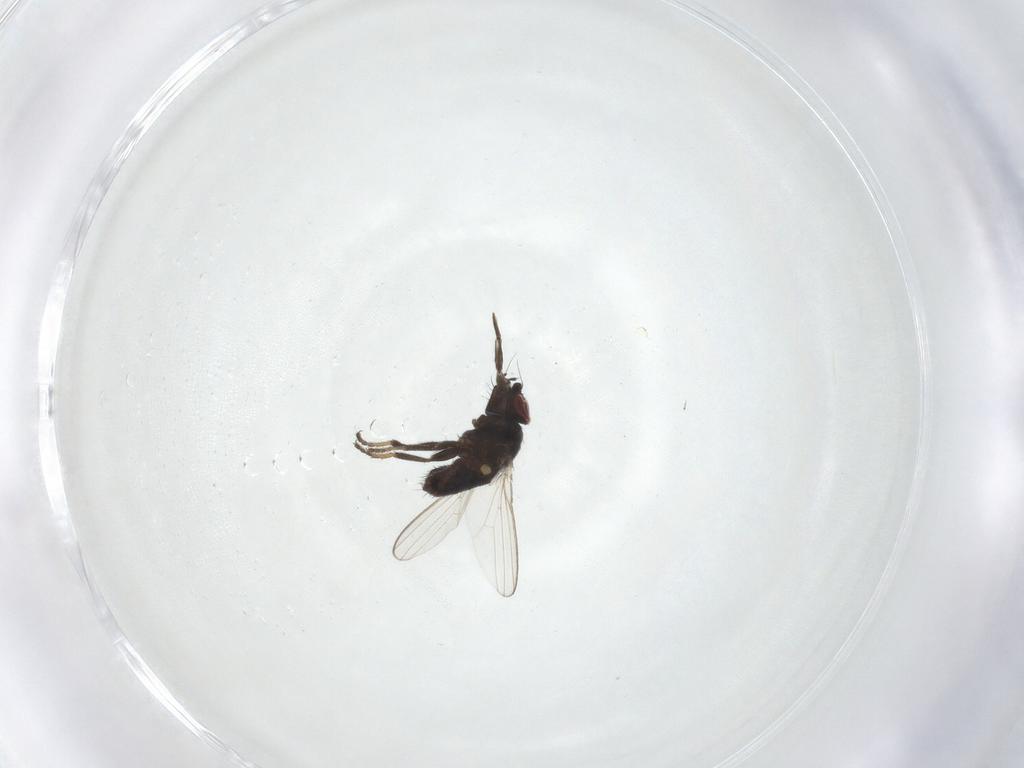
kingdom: Animalia
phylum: Arthropoda
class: Insecta
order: Diptera
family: Milichiidae
